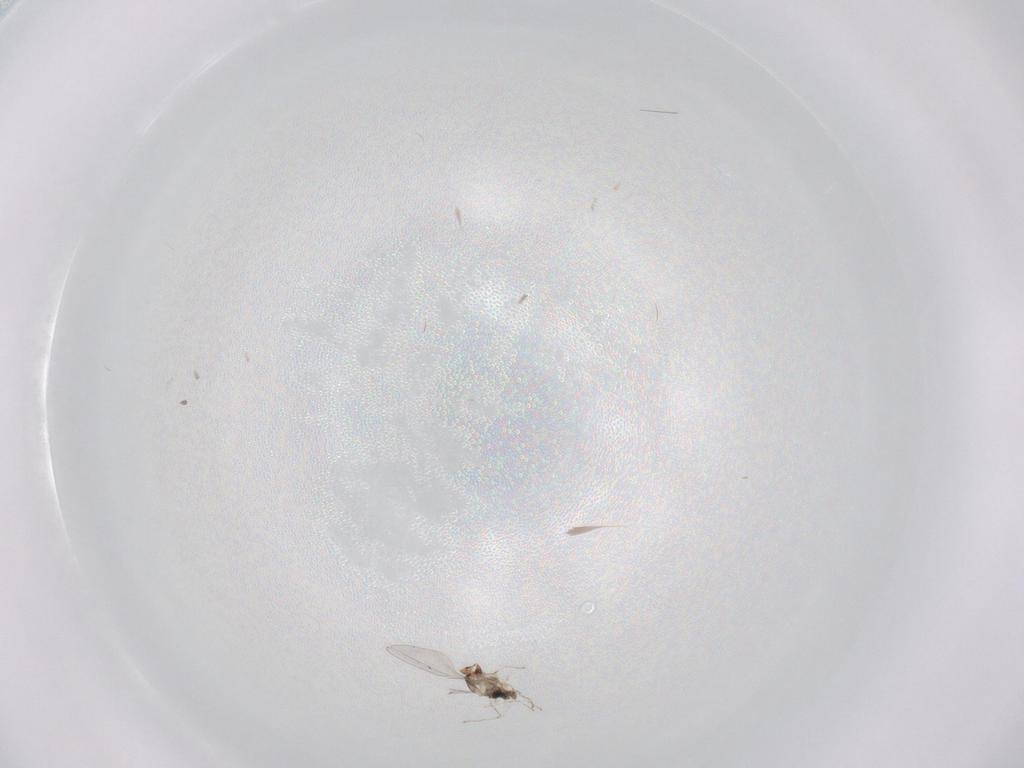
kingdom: Animalia
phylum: Arthropoda
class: Insecta
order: Diptera
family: Cecidomyiidae
